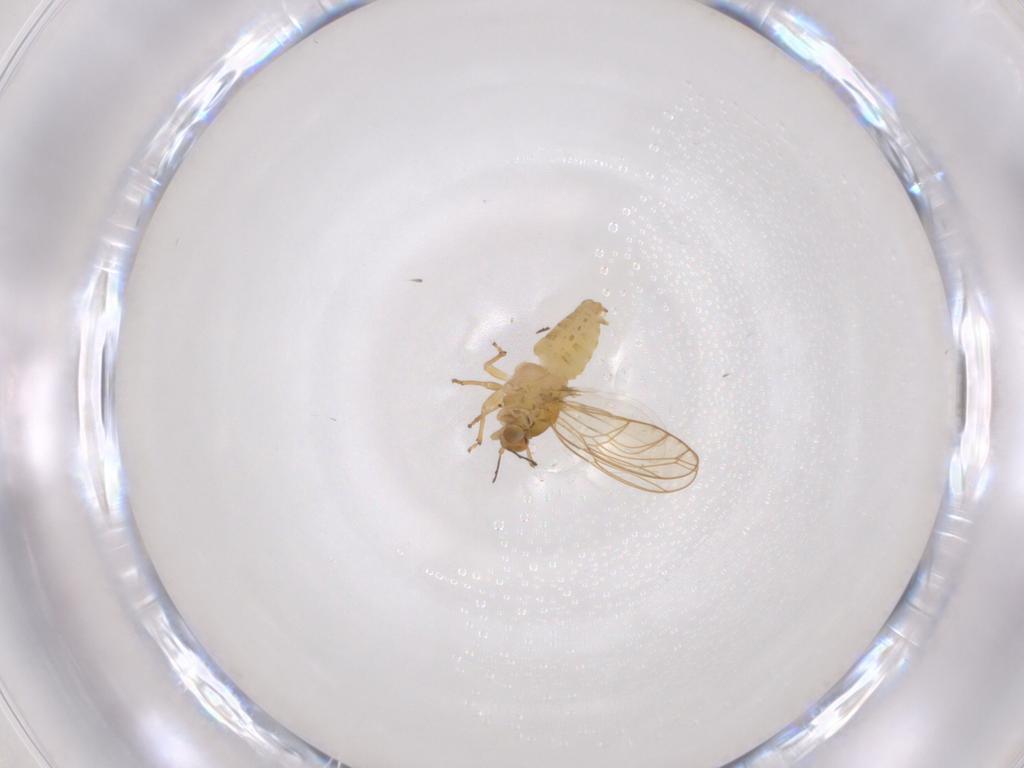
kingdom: Animalia
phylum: Arthropoda
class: Insecta
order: Hemiptera
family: Psylloidea_incertae_sedis
